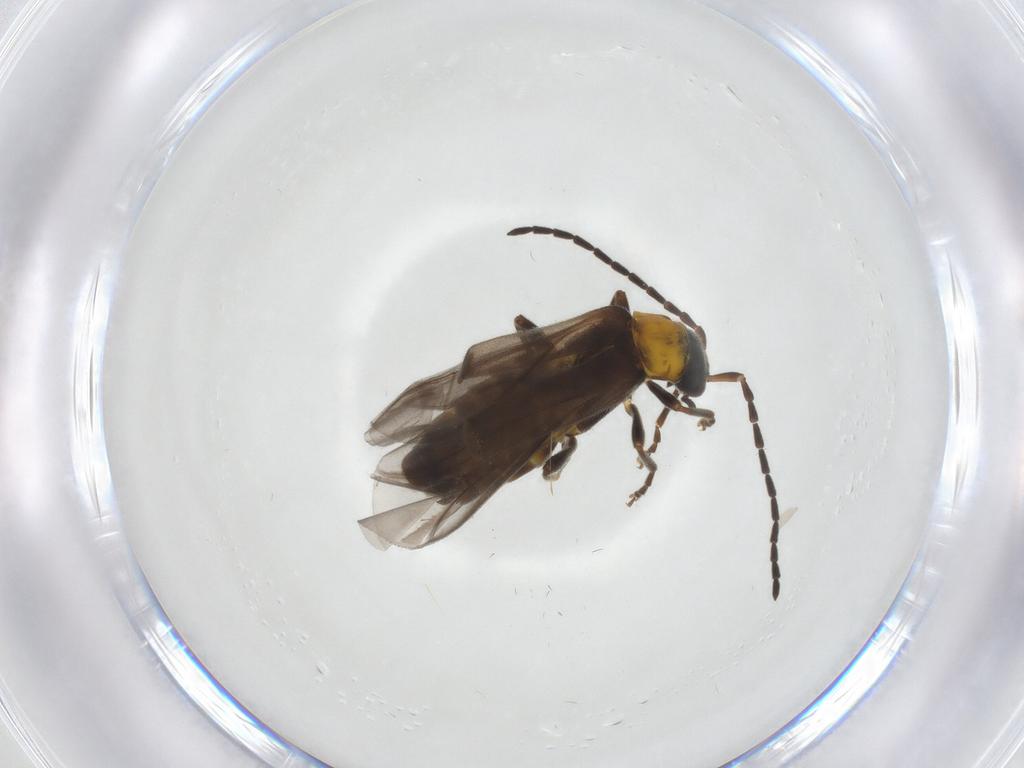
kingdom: Animalia
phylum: Arthropoda
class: Insecta
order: Coleoptera
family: Cantharidae
